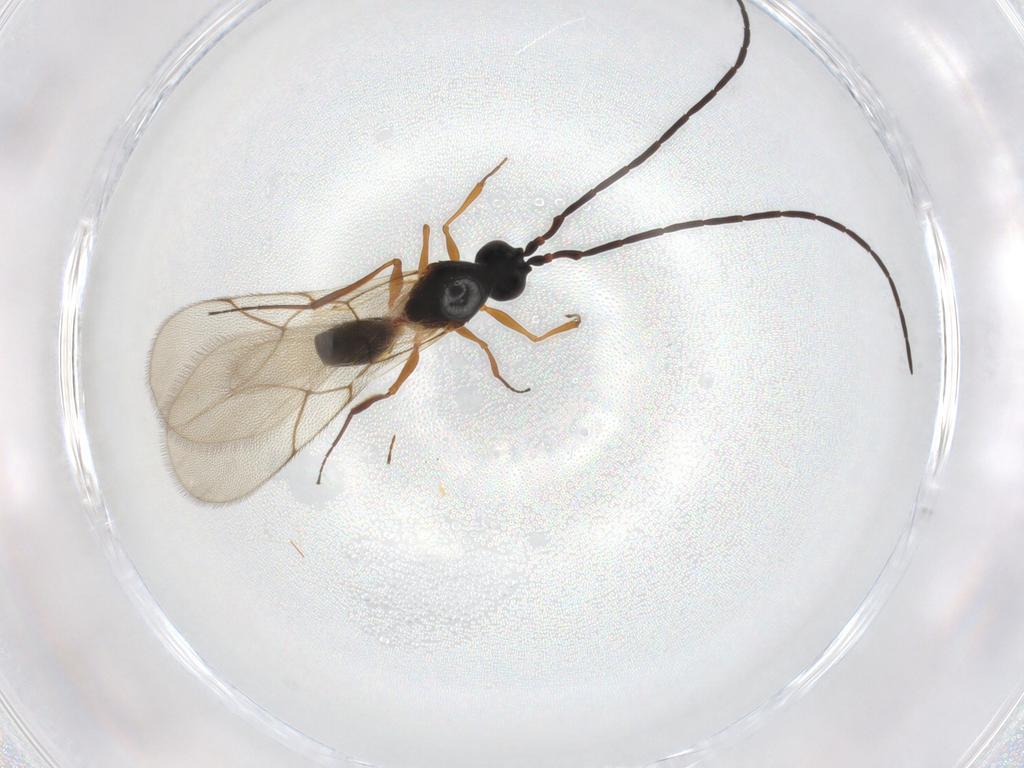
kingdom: Animalia
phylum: Arthropoda
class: Insecta
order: Hymenoptera
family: Figitidae
